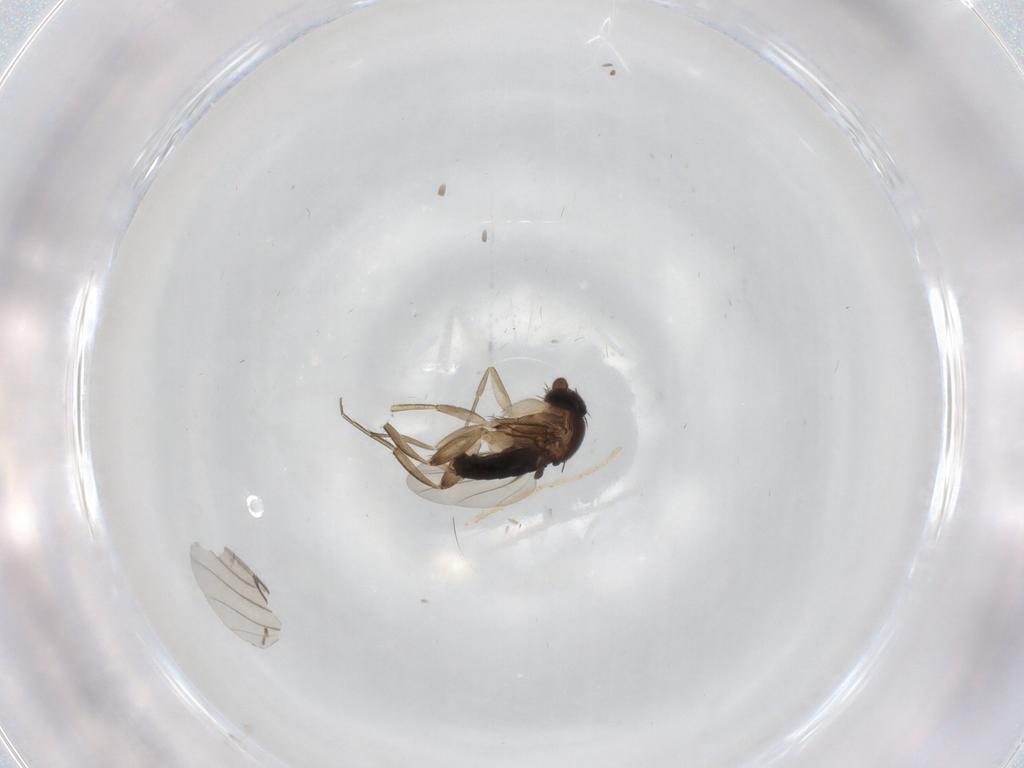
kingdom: Animalia
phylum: Arthropoda
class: Insecta
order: Diptera
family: Phoridae
